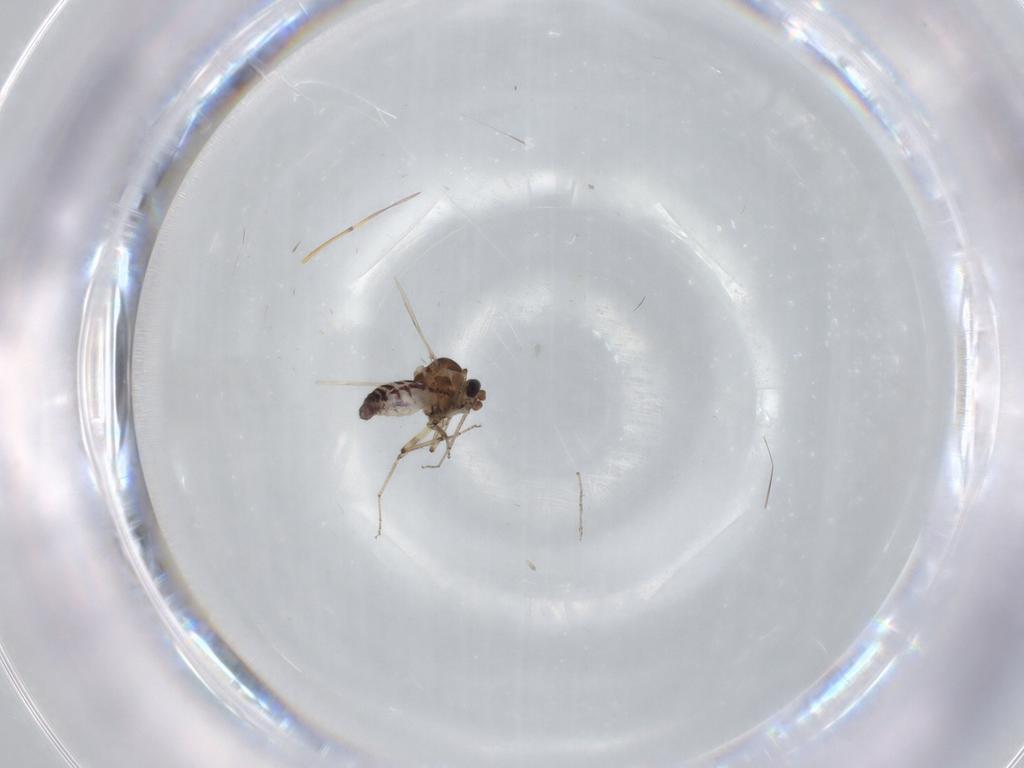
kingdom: Animalia
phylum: Arthropoda
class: Insecta
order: Diptera
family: Ceratopogonidae
